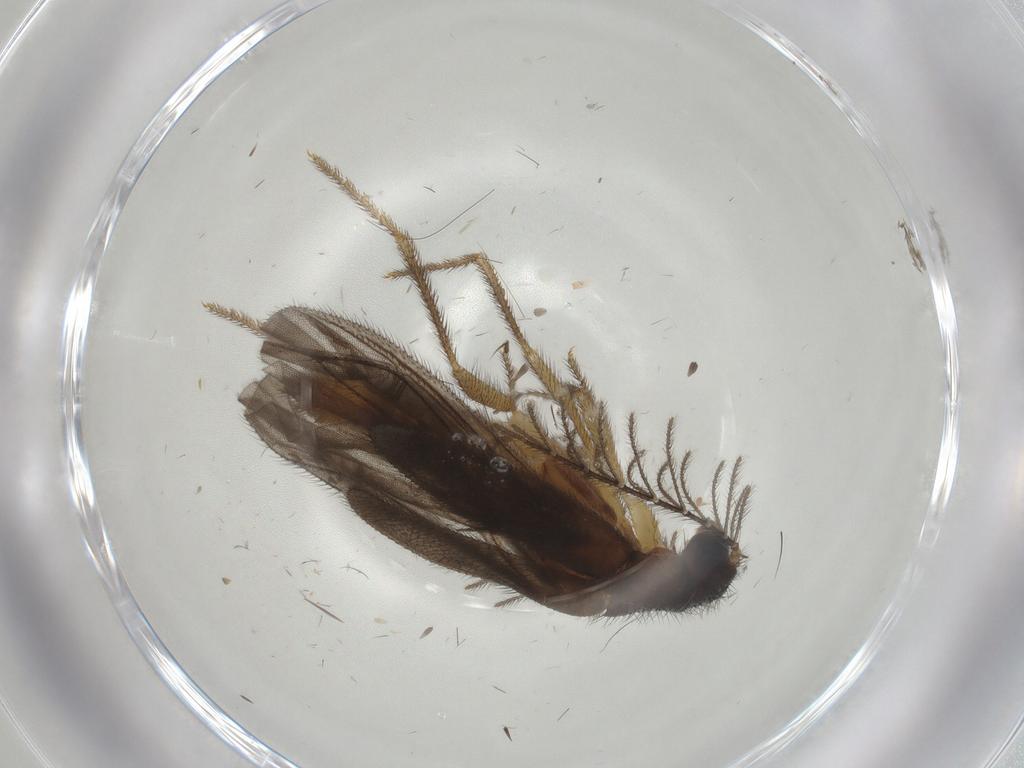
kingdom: Animalia
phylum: Arthropoda
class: Insecta
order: Coleoptera
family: Phengodidae
